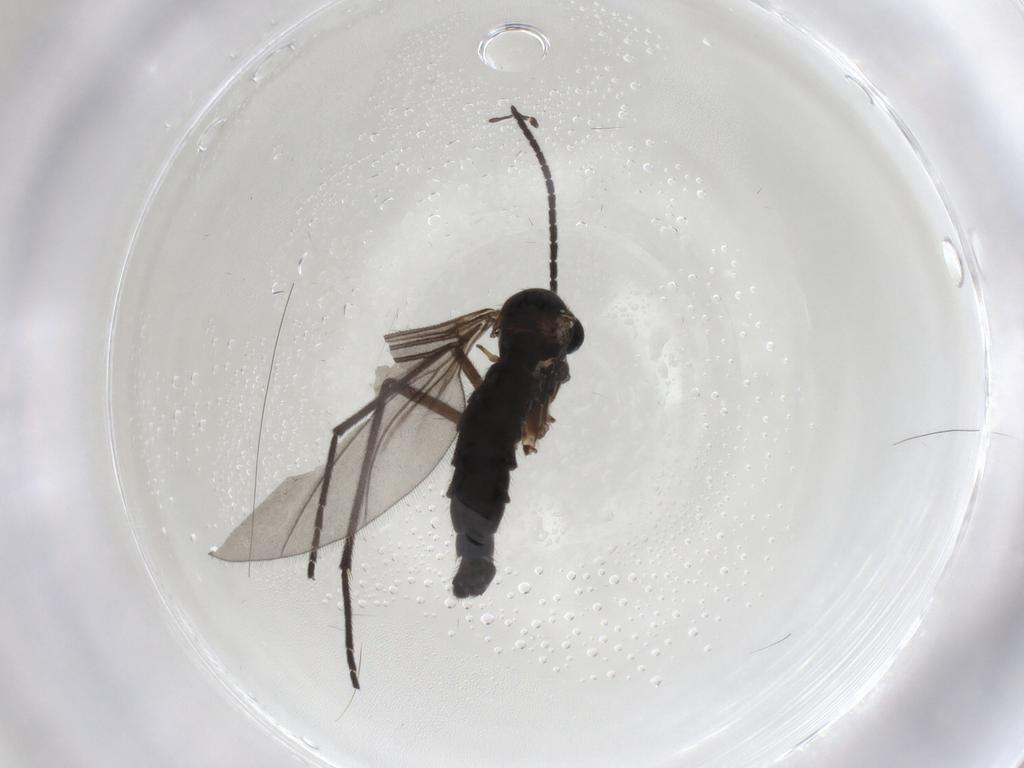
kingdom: Animalia
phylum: Arthropoda
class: Insecta
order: Diptera
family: Sciaridae
